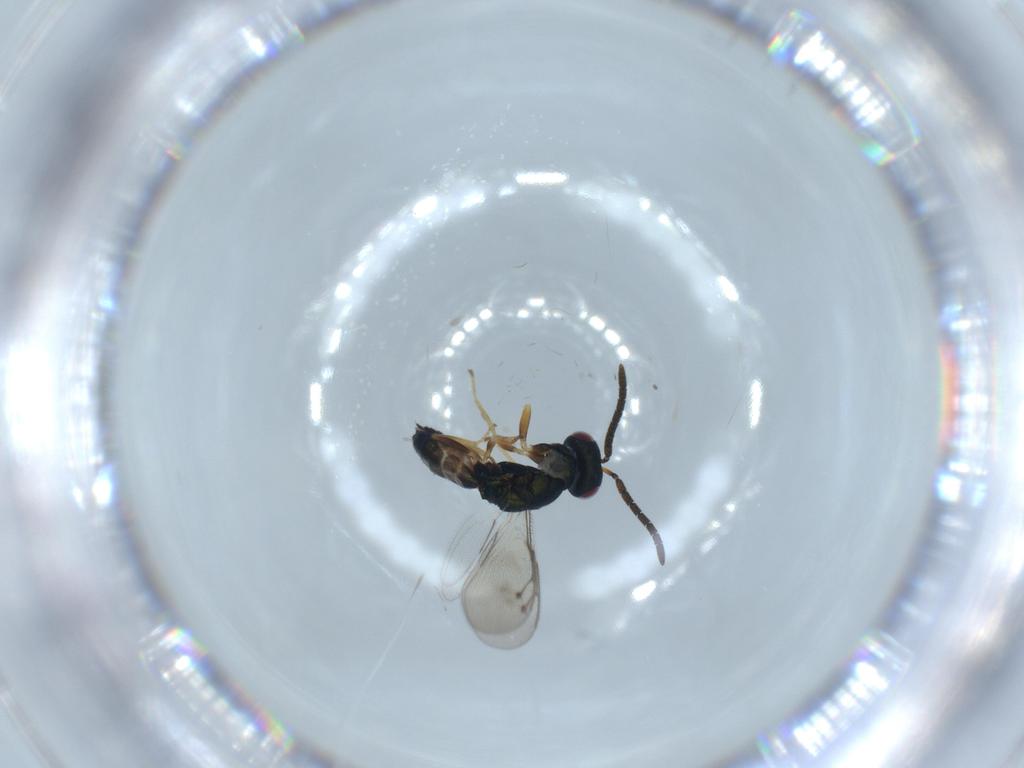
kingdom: Animalia
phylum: Arthropoda
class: Insecta
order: Hymenoptera
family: Pteromalidae
